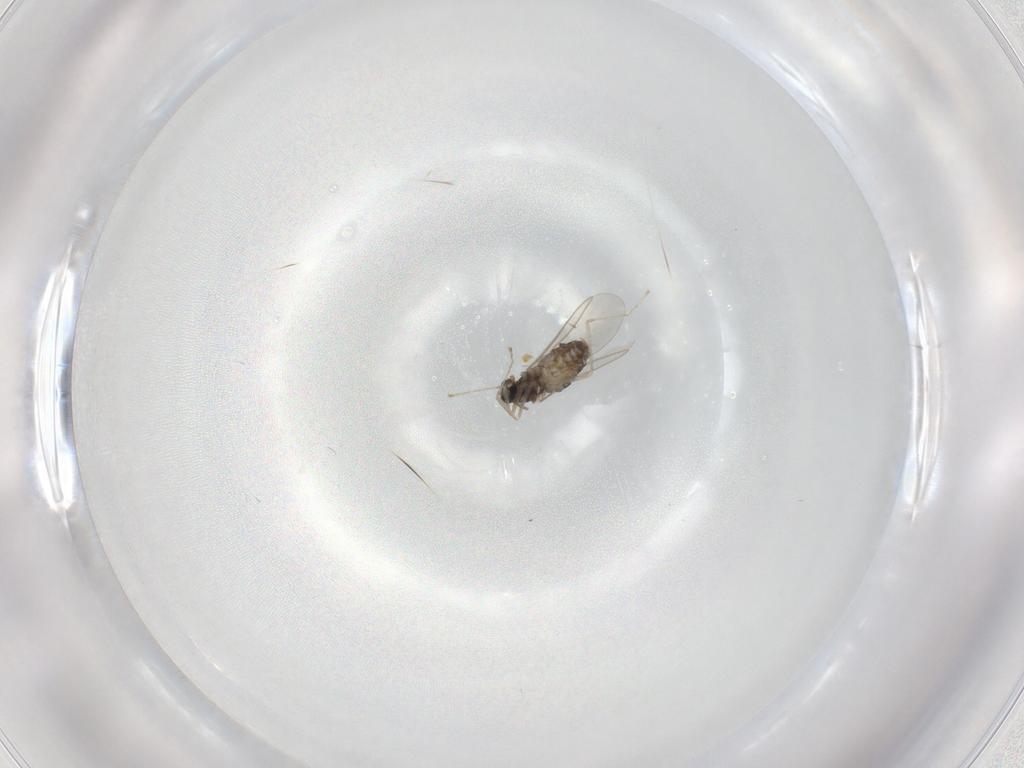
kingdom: Animalia
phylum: Arthropoda
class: Insecta
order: Diptera
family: Cecidomyiidae
